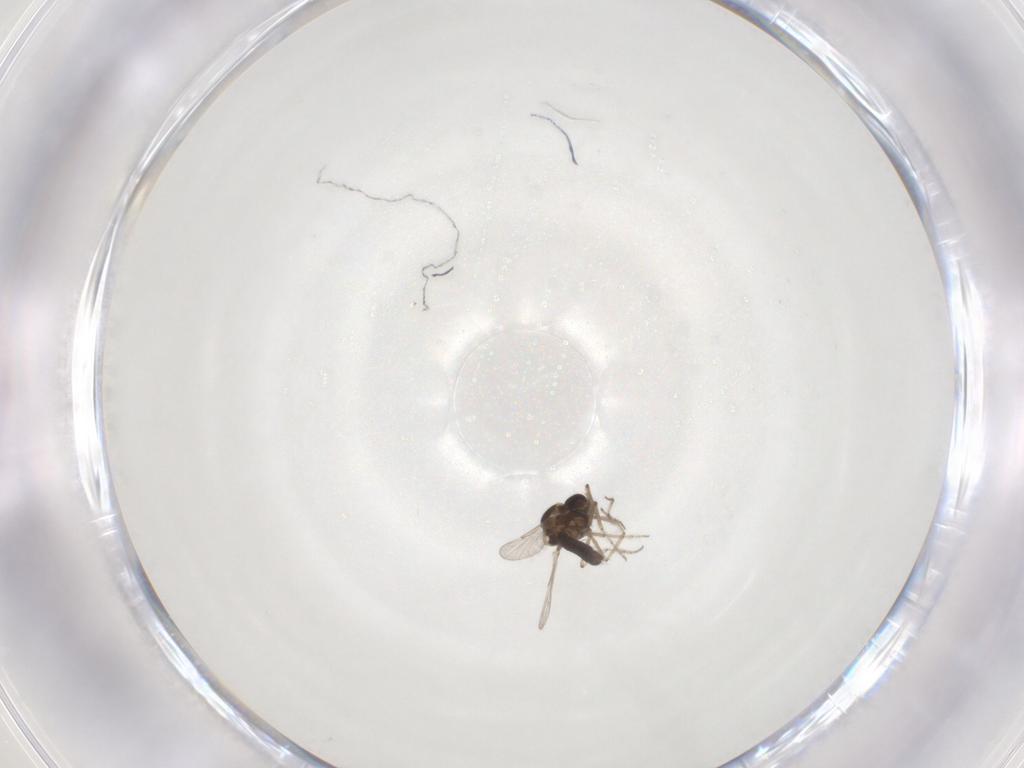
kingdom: Animalia
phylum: Arthropoda
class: Insecta
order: Diptera
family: Ceratopogonidae
